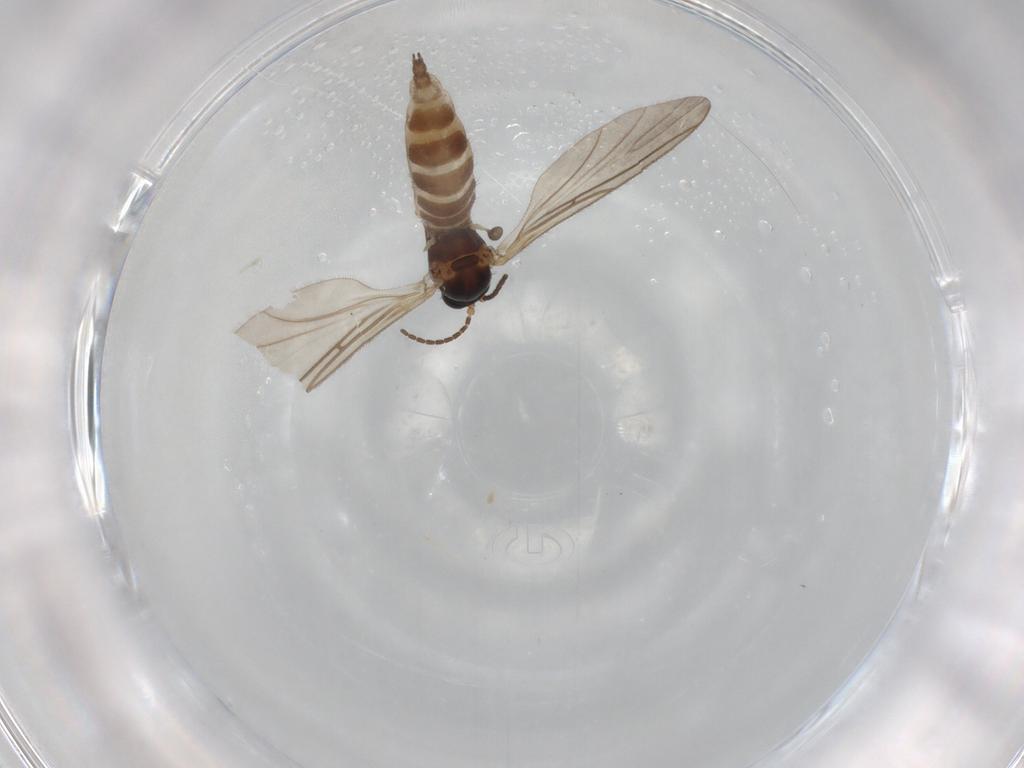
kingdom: Animalia
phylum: Arthropoda
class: Insecta
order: Diptera
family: Sciaridae
